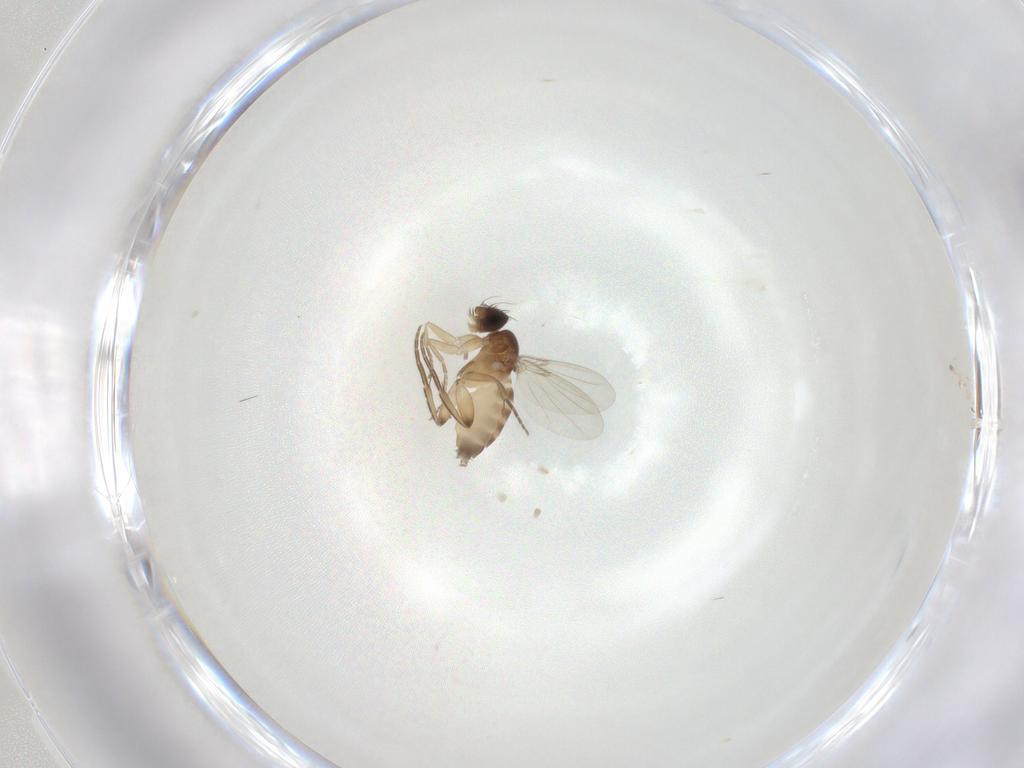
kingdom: Animalia
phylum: Arthropoda
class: Insecta
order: Diptera
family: Phoridae
